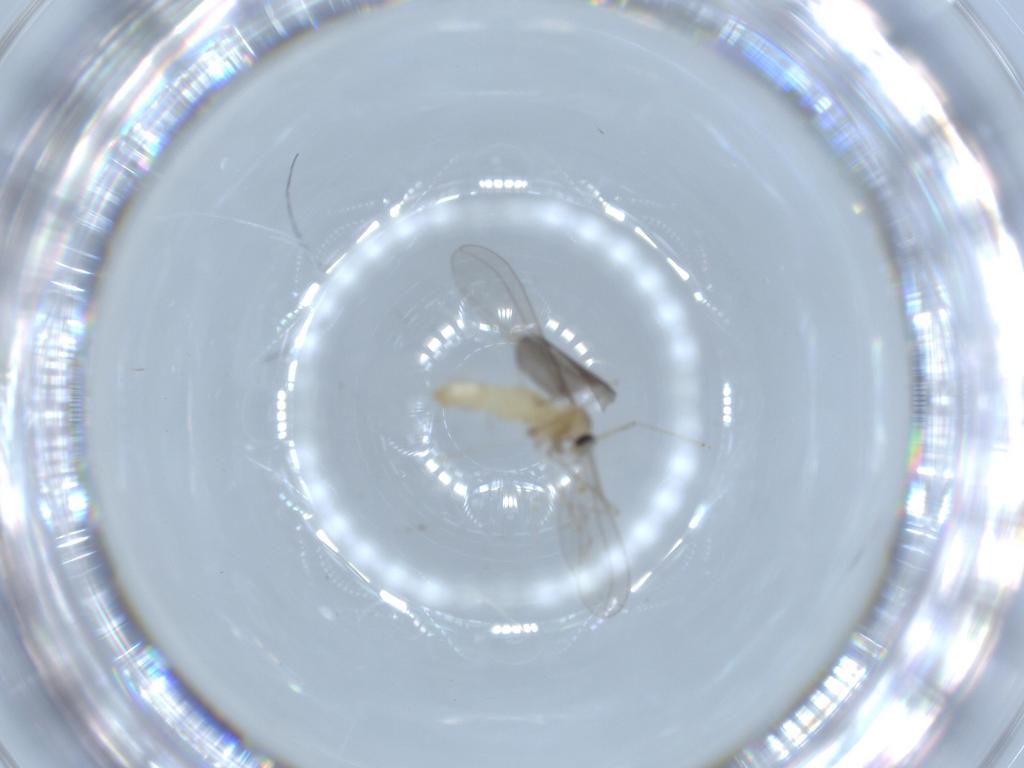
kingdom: Animalia
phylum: Arthropoda
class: Insecta
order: Diptera
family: Cecidomyiidae
